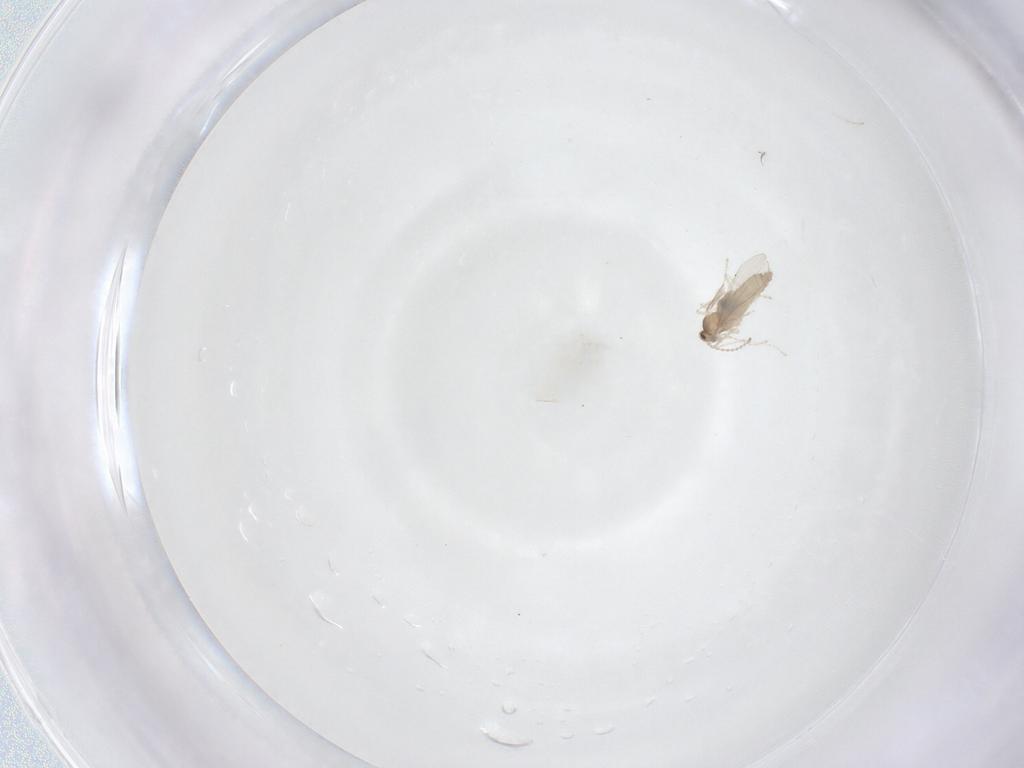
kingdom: Animalia
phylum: Arthropoda
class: Insecta
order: Diptera
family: Cecidomyiidae
